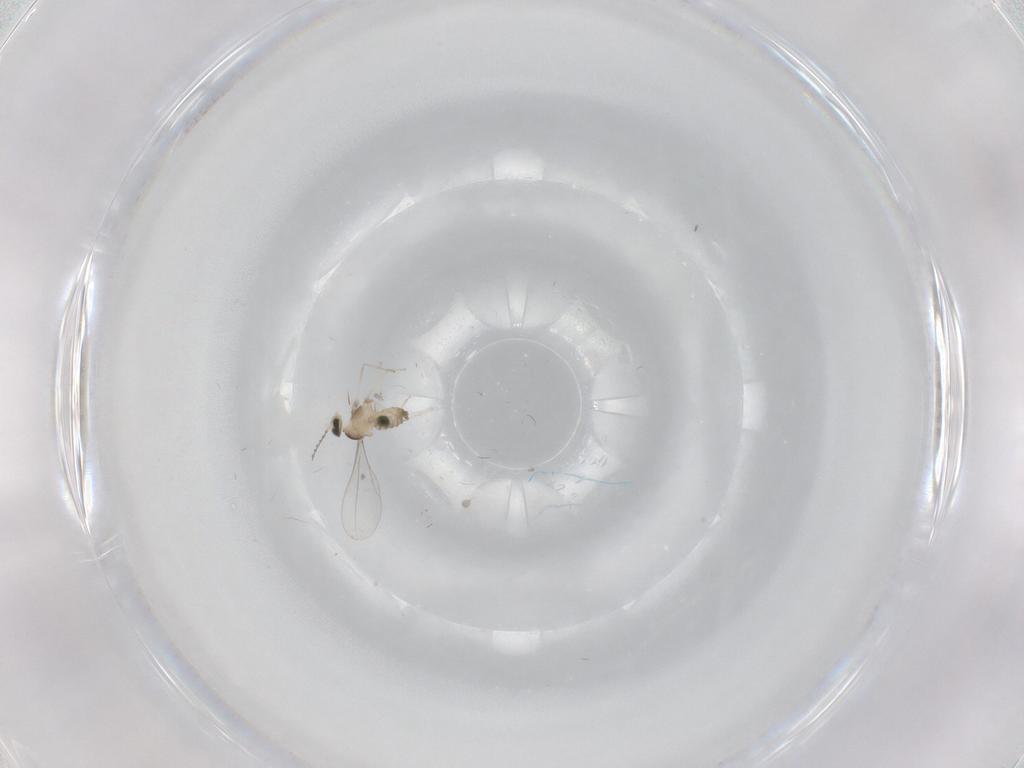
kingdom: Animalia
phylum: Arthropoda
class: Insecta
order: Diptera
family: Cecidomyiidae
